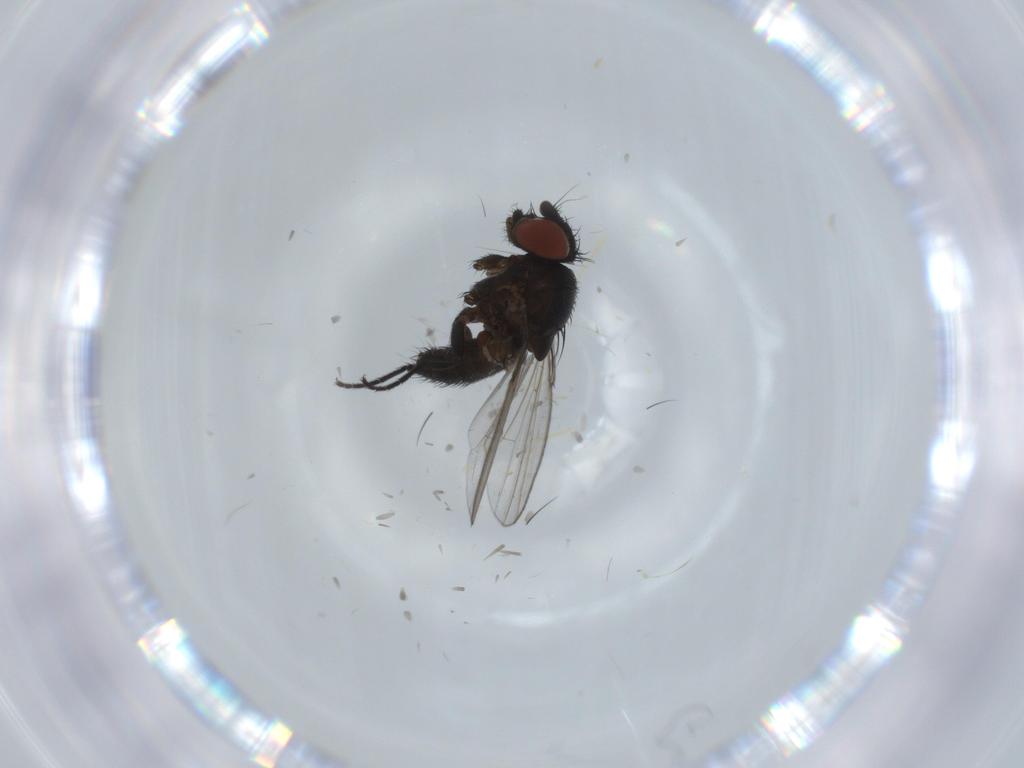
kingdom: Animalia
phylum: Arthropoda
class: Insecta
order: Diptera
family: Milichiidae
